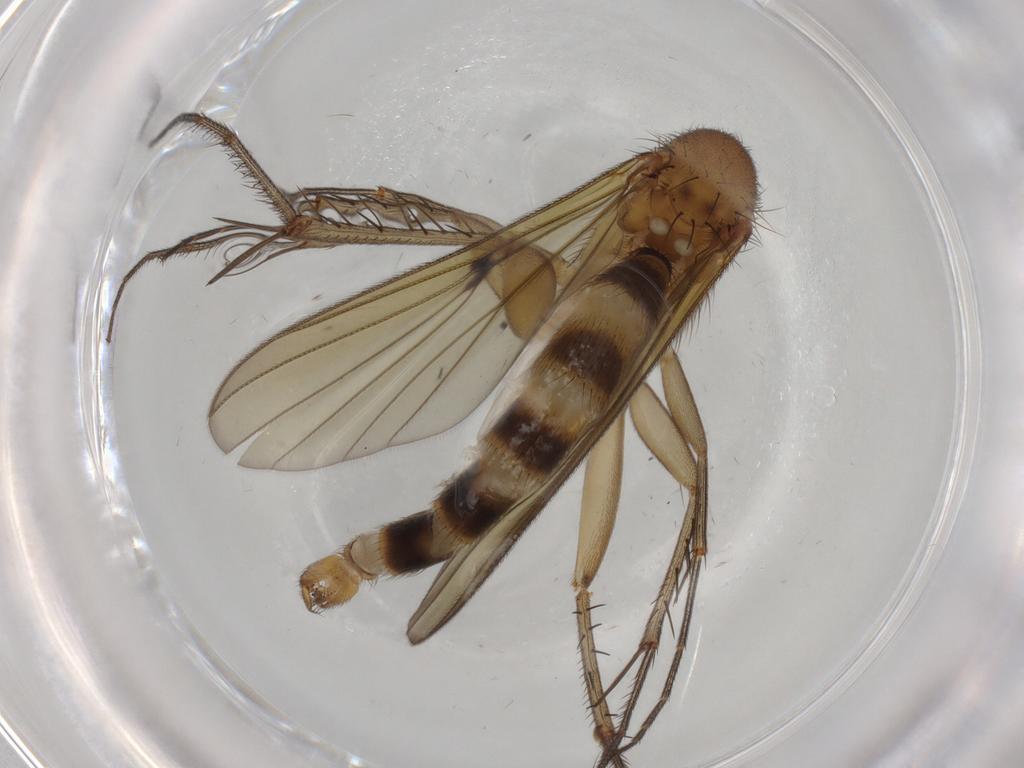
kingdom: Animalia
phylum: Arthropoda
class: Insecta
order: Diptera
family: Mycetophilidae
